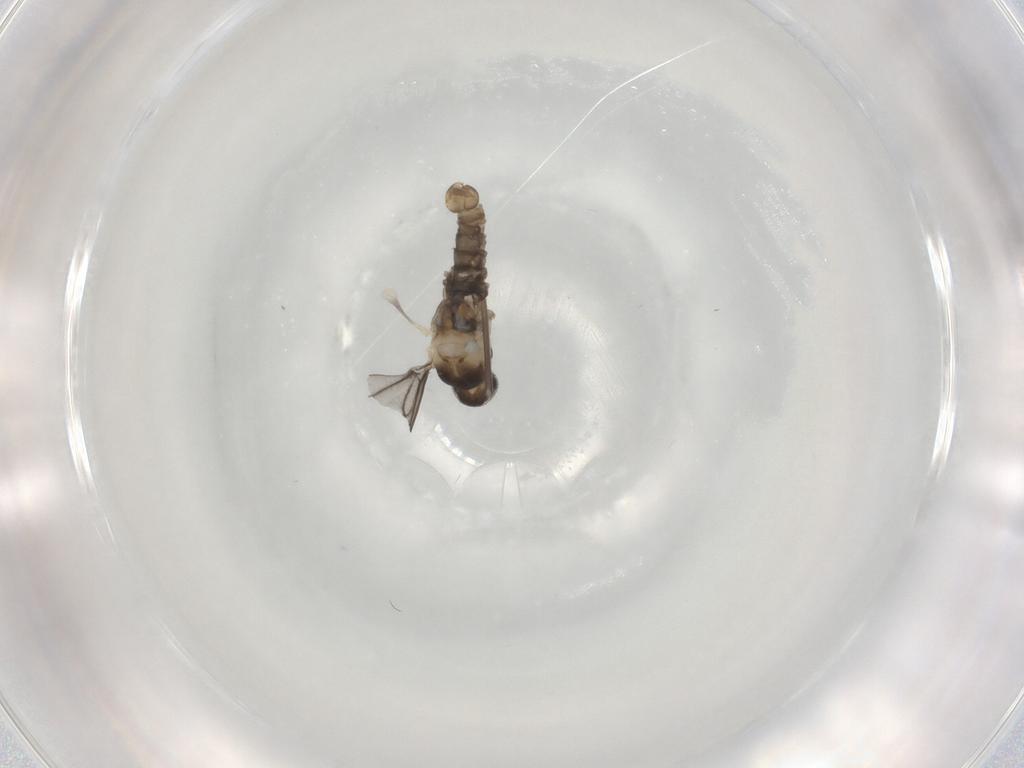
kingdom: Animalia
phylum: Arthropoda
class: Insecta
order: Diptera
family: Cecidomyiidae
